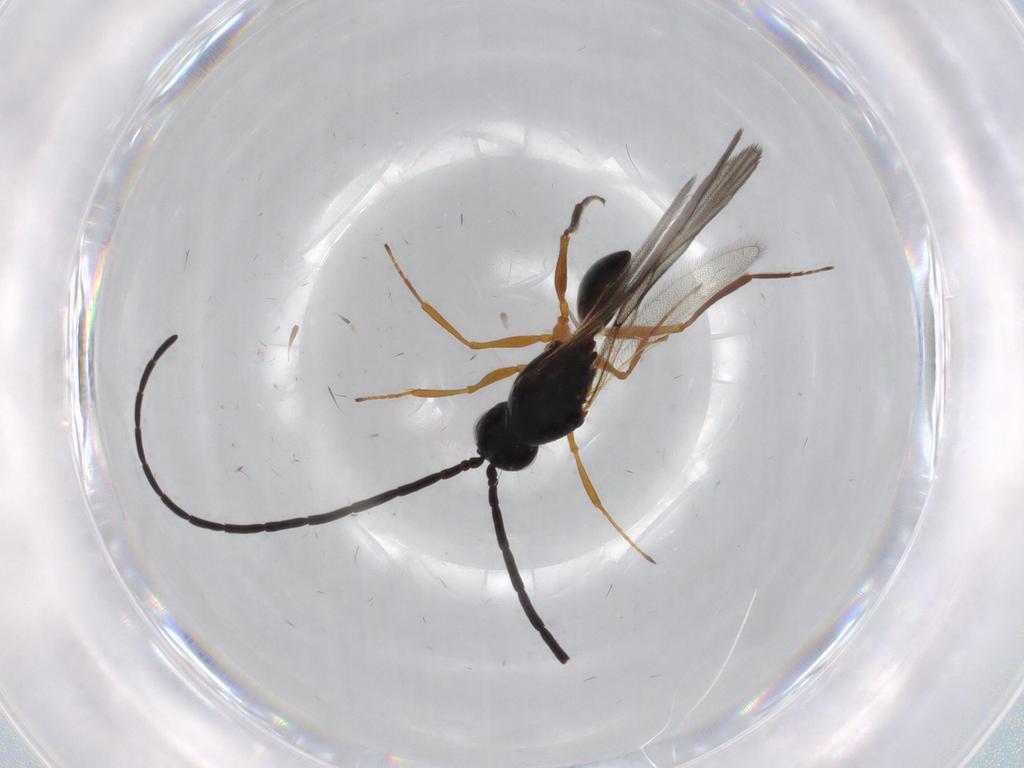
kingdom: Animalia
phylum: Arthropoda
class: Insecta
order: Hymenoptera
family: Figitidae
